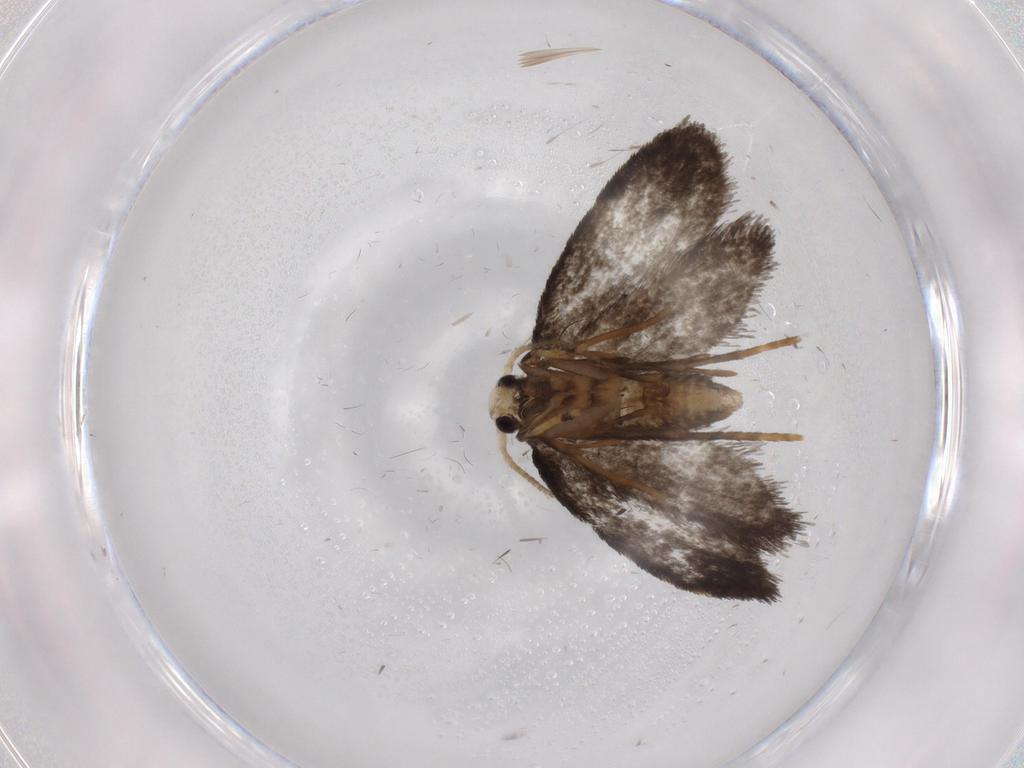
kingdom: Animalia
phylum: Arthropoda
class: Insecta
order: Lepidoptera
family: Psychidae
